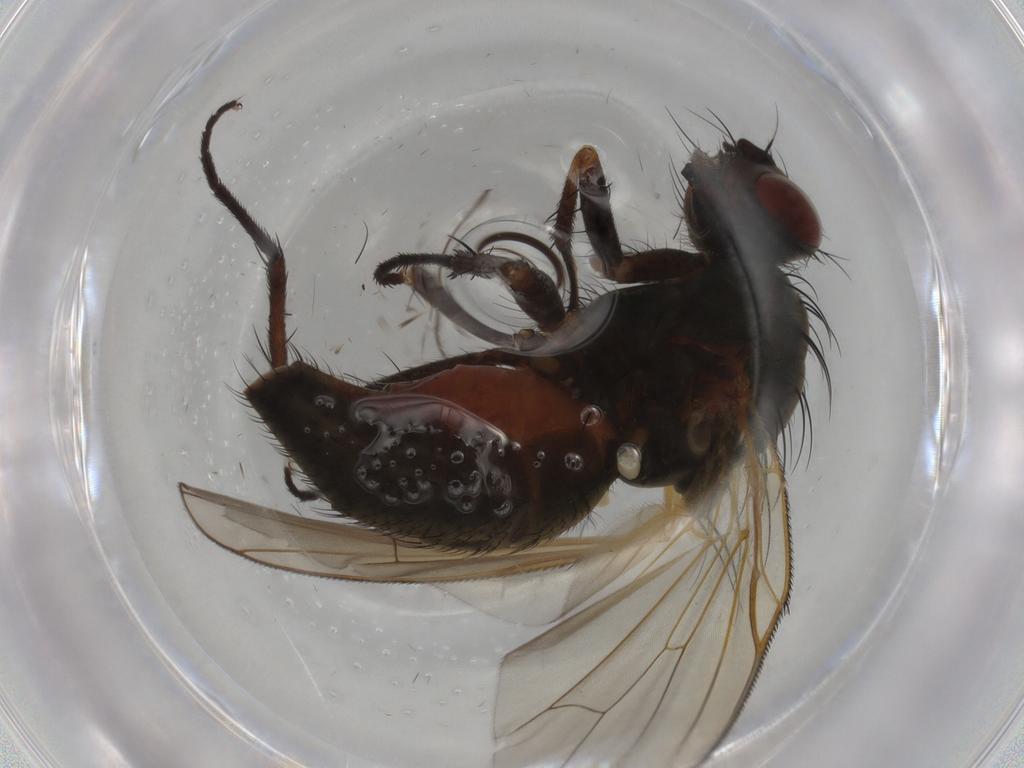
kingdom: Animalia
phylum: Arthropoda
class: Insecta
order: Diptera
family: Anthomyiidae
